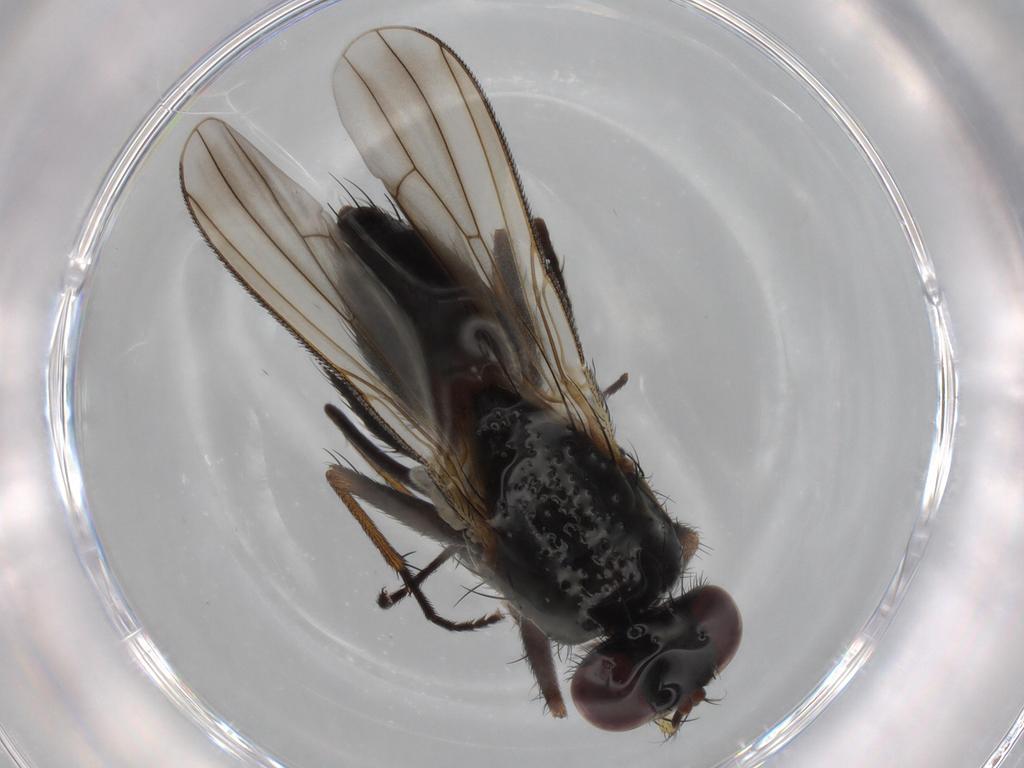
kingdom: Animalia
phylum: Arthropoda
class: Insecta
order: Diptera
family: Muscidae
